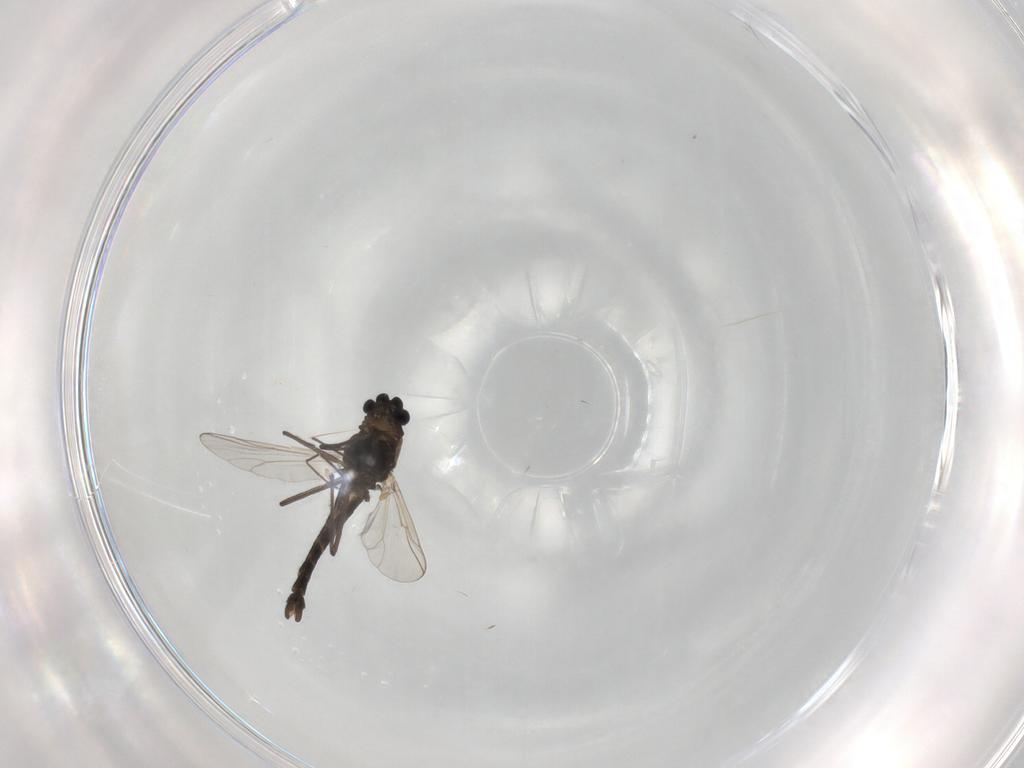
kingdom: Animalia
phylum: Arthropoda
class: Insecta
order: Diptera
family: Chironomidae
